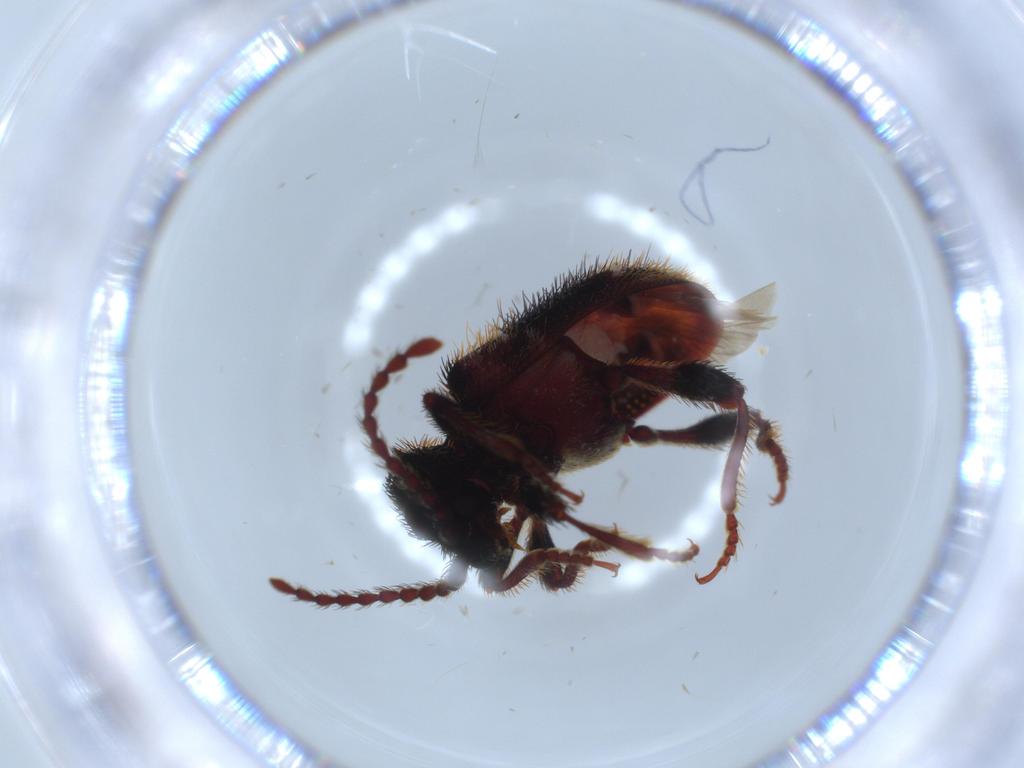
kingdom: Animalia
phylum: Arthropoda
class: Insecta
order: Coleoptera
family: Ptinidae
